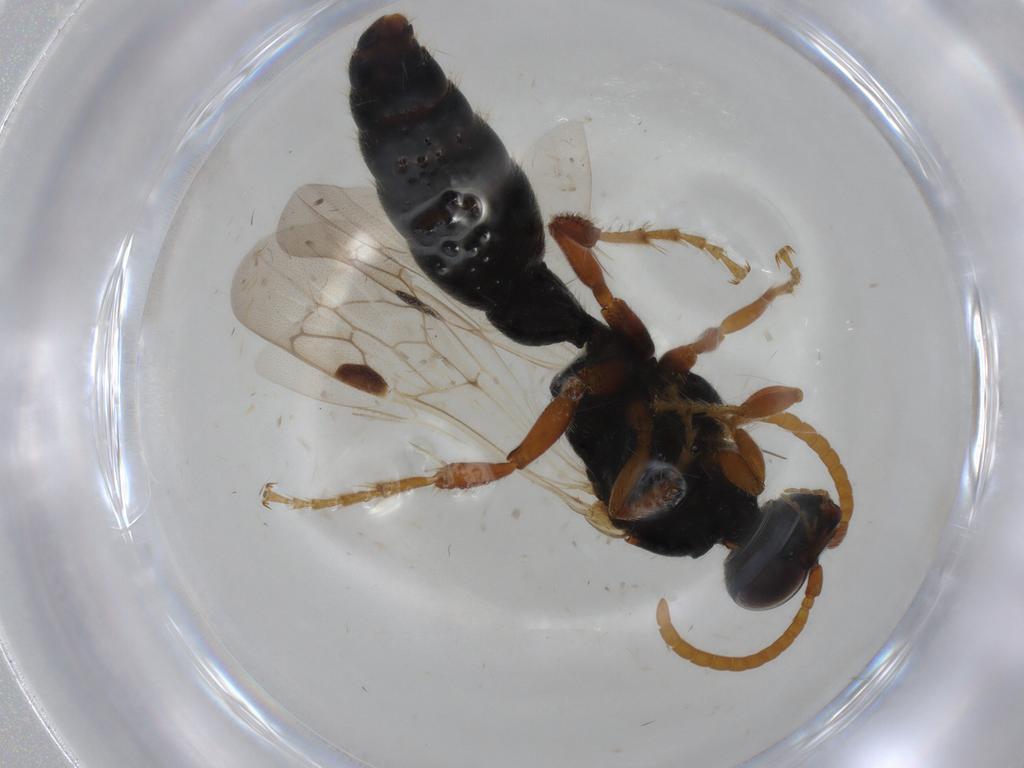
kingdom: Animalia
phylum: Arthropoda
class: Insecta
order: Hymenoptera
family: Tiphiidae
